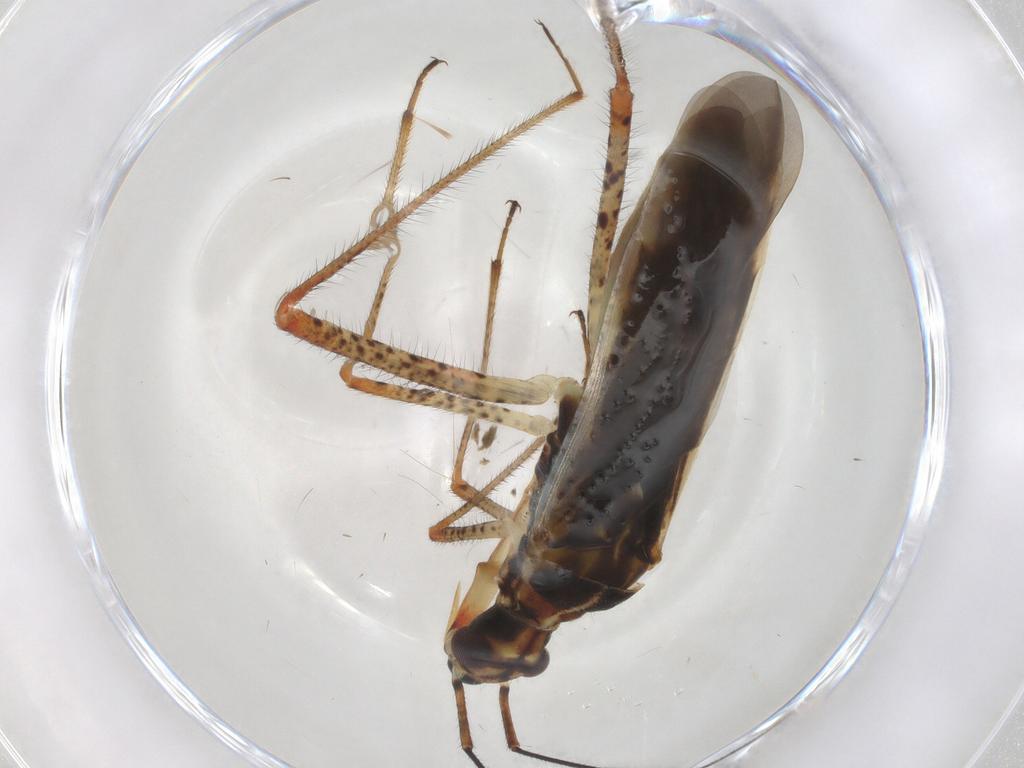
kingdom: Animalia
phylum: Arthropoda
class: Insecta
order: Hemiptera
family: Miridae
